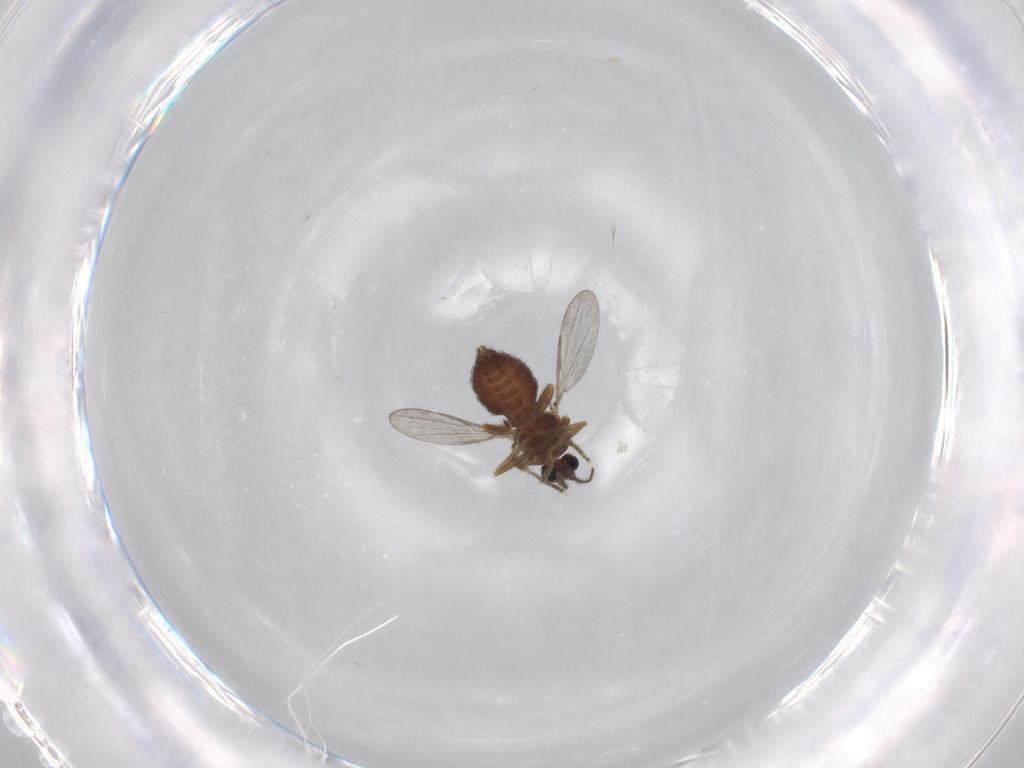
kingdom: Animalia
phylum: Arthropoda
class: Insecta
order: Diptera
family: Ceratopogonidae
